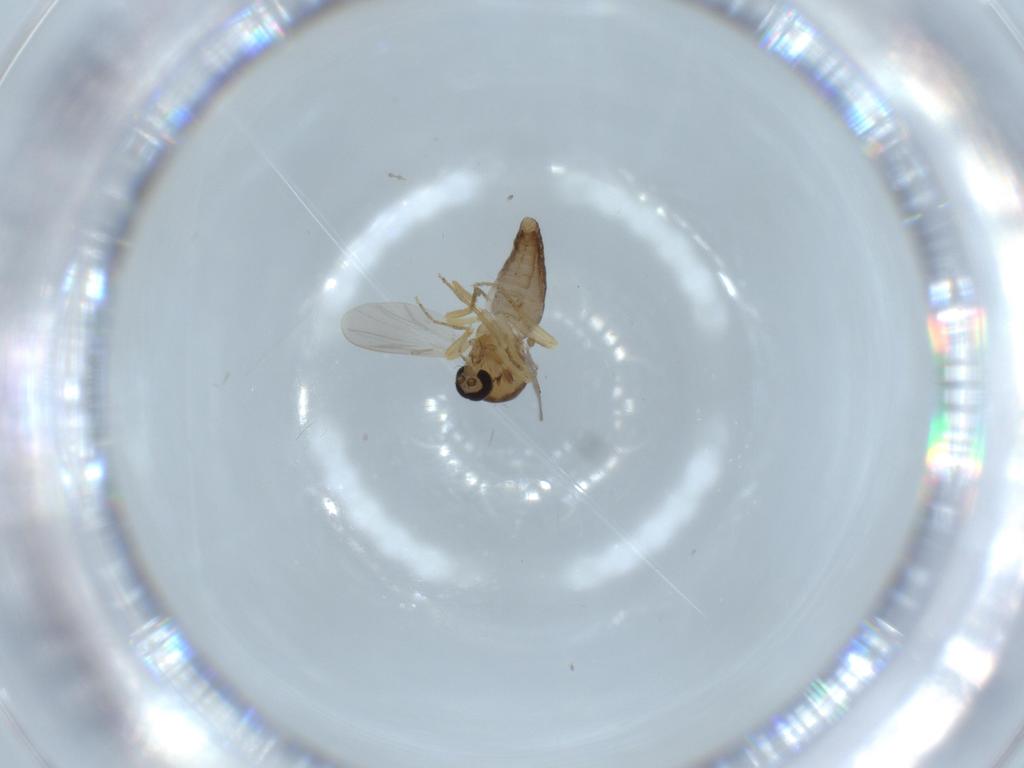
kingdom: Animalia
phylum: Arthropoda
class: Insecta
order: Diptera
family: Ceratopogonidae
